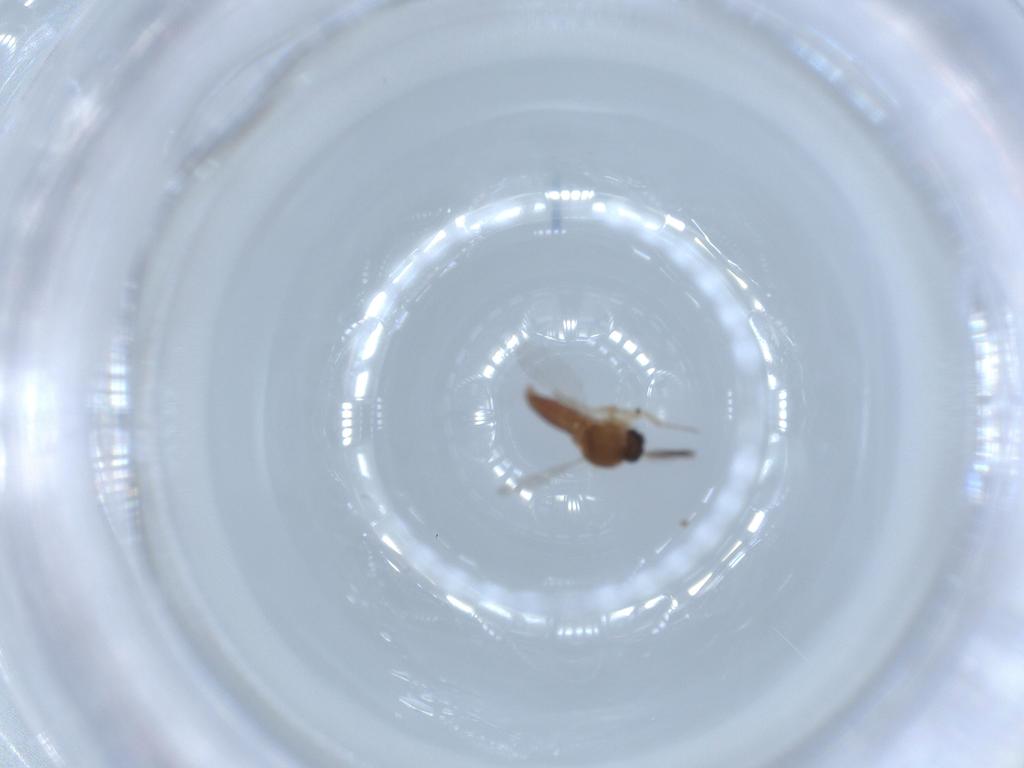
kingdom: Animalia
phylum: Arthropoda
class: Insecta
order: Diptera
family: Ceratopogonidae
